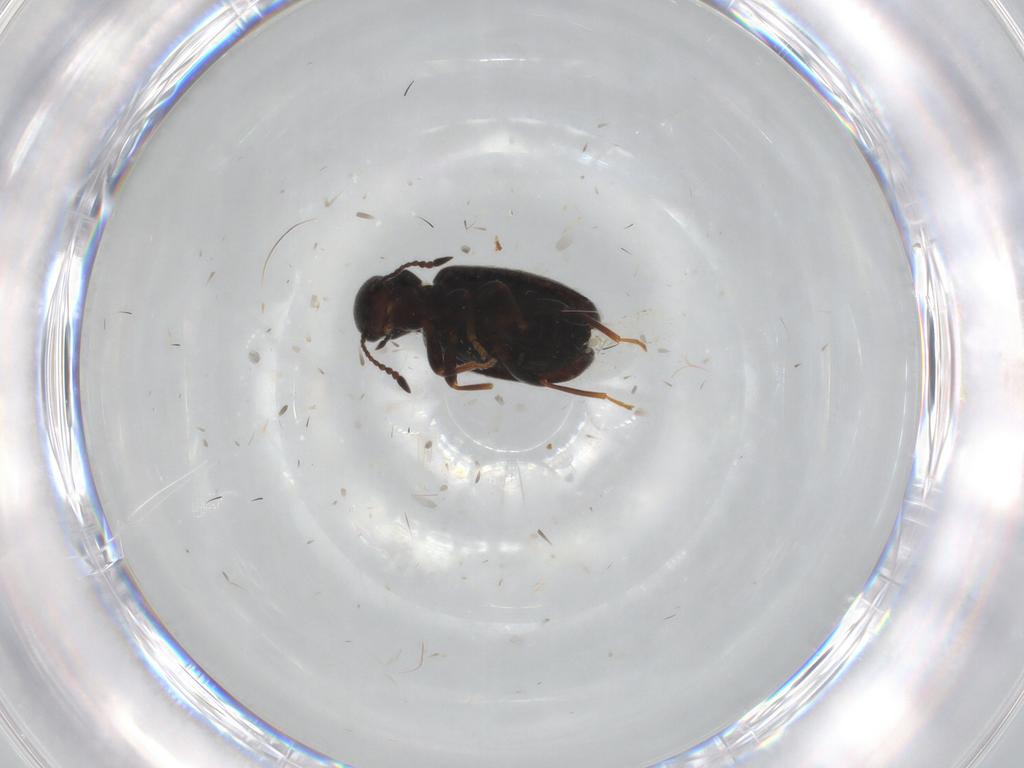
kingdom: Animalia
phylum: Arthropoda
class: Insecta
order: Coleoptera
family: Anthicidae
